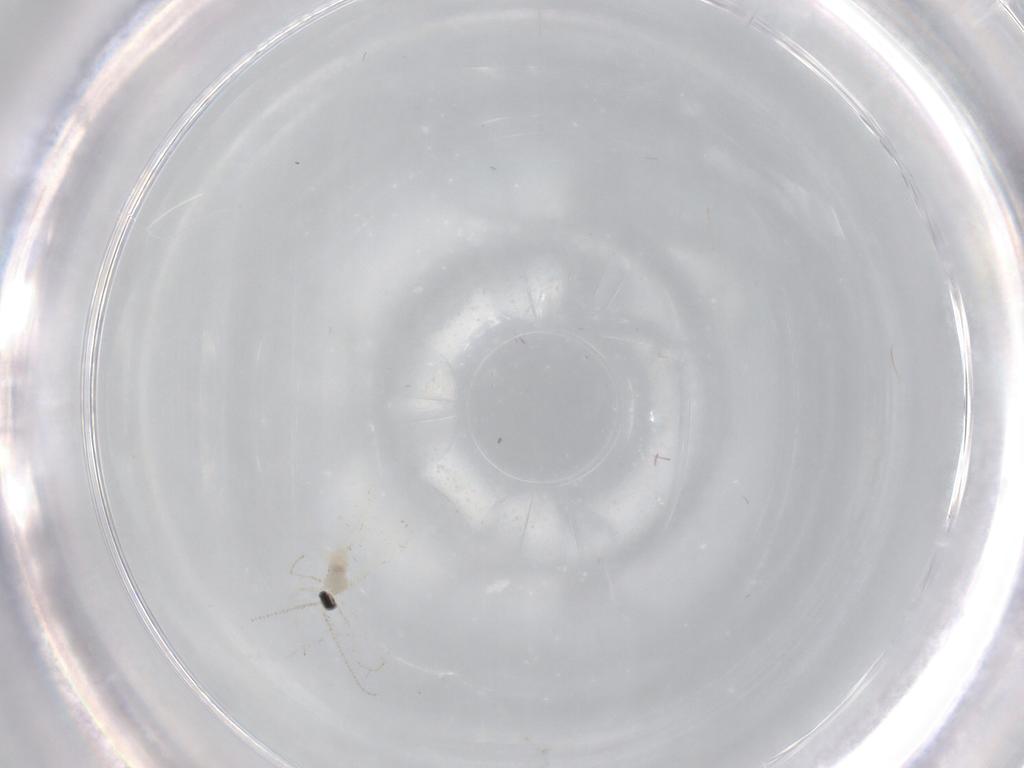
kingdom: Animalia
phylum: Arthropoda
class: Insecta
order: Diptera
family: Cecidomyiidae
